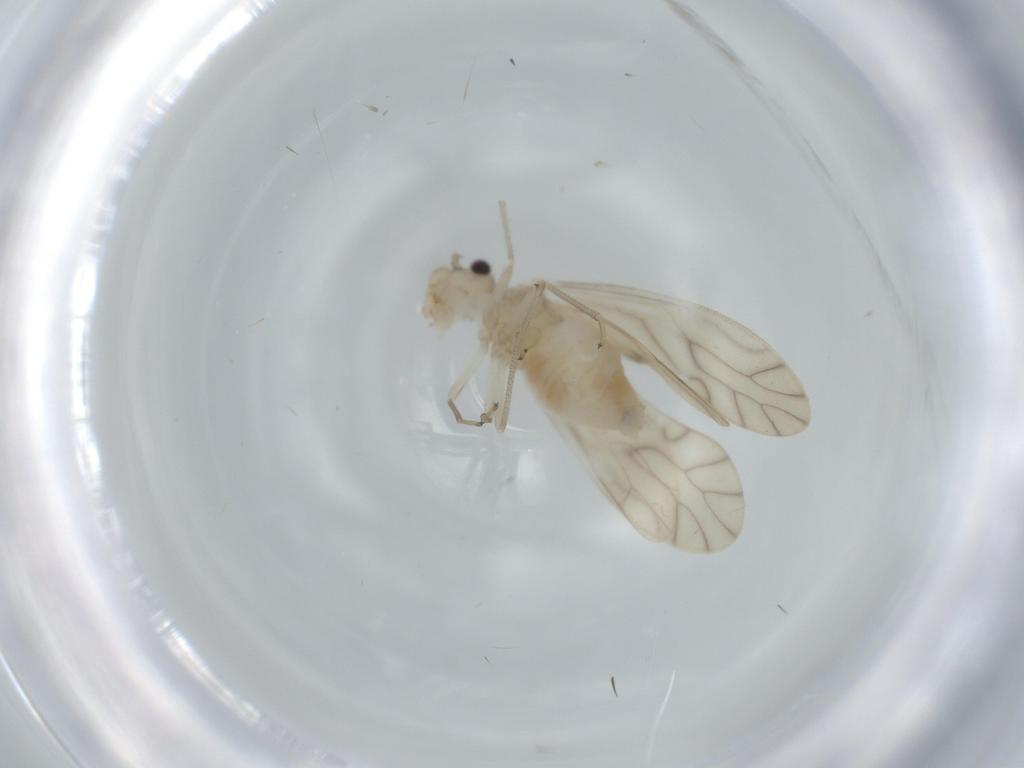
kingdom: Animalia
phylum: Arthropoda
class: Insecta
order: Psocodea
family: Caeciliusidae
